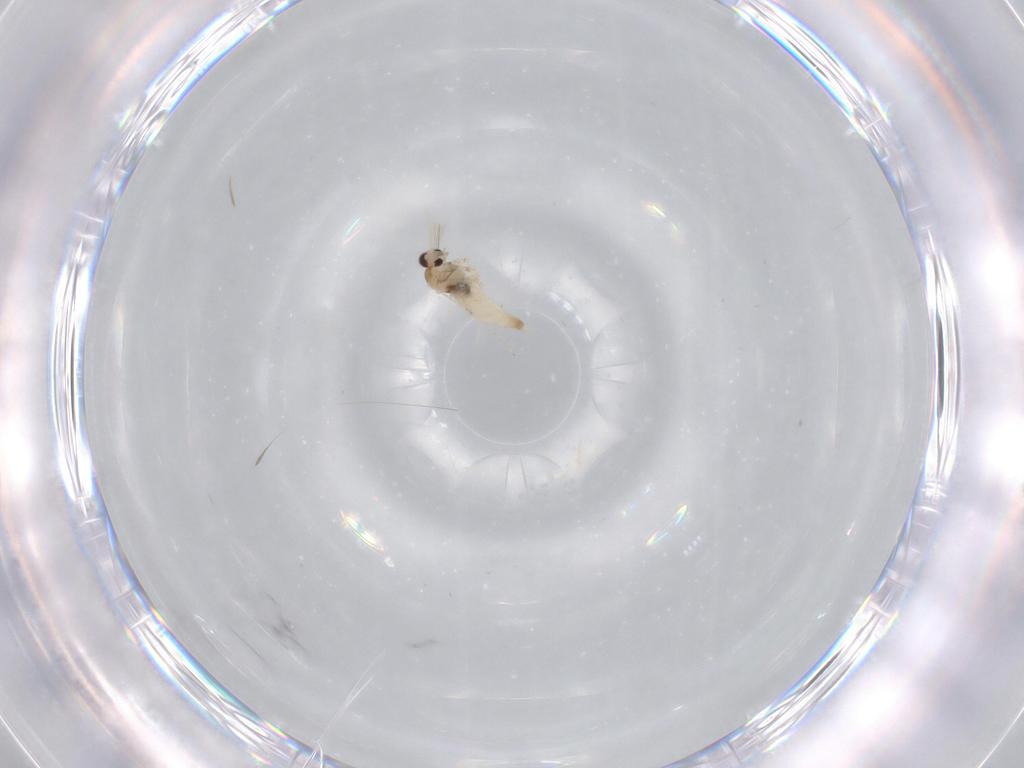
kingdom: Animalia
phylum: Arthropoda
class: Insecta
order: Diptera
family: Cecidomyiidae
